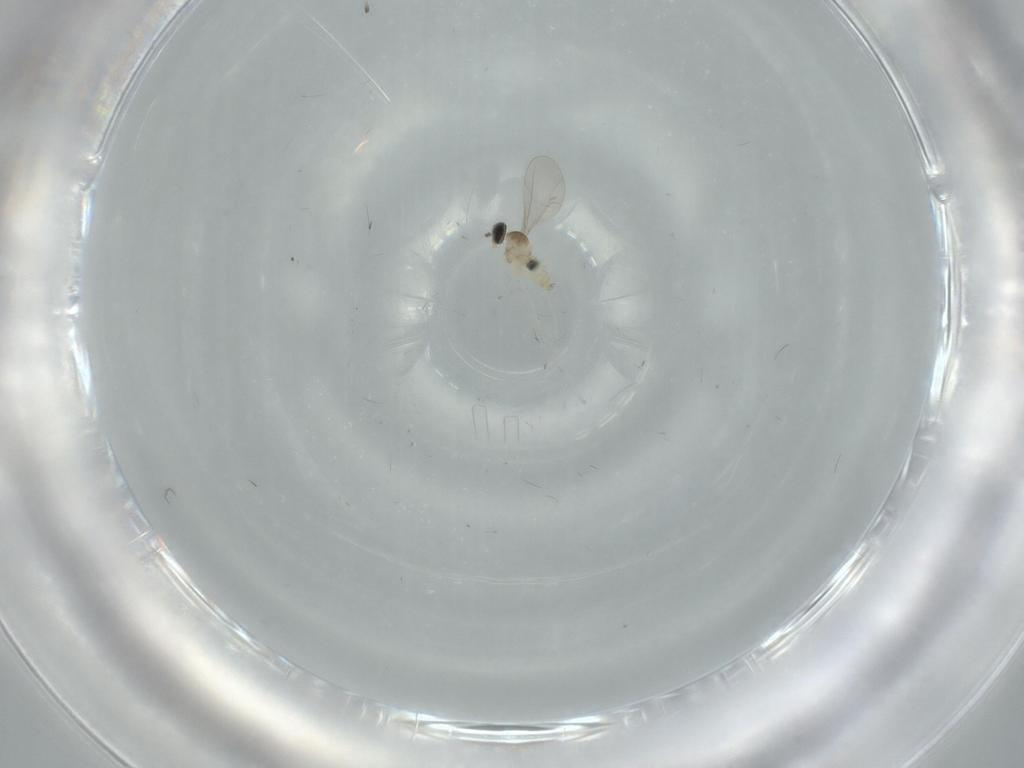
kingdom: Animalia
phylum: Arthropoda
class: Insecta
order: Diptera
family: Cecidomyiidae
